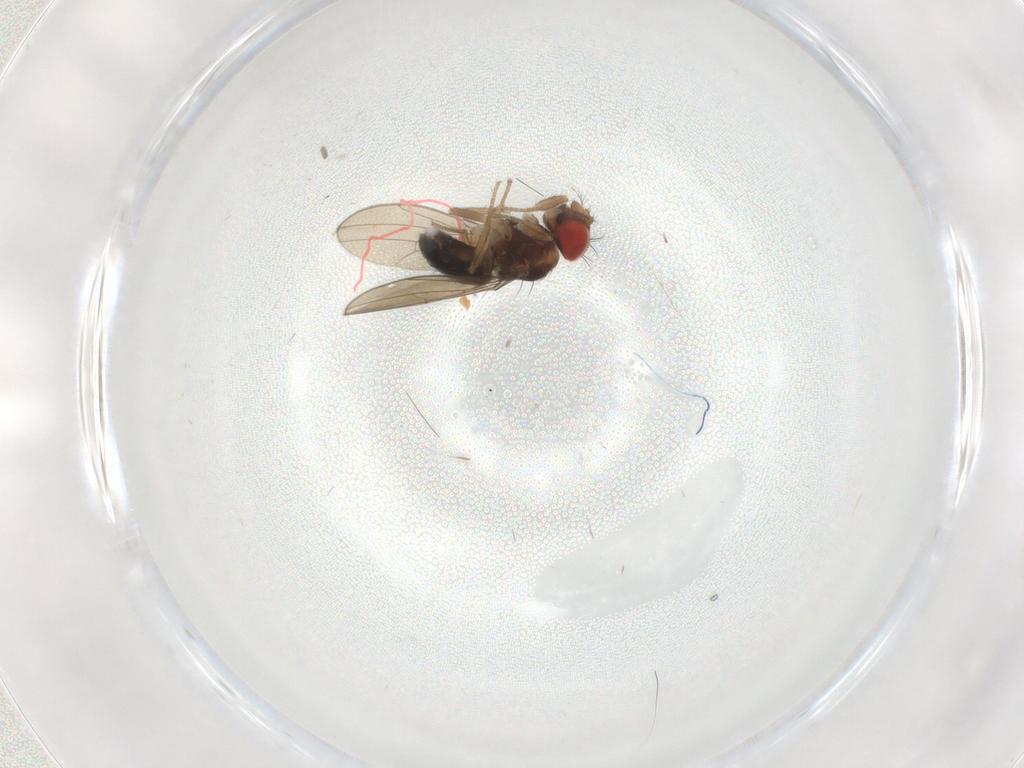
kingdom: Animalia
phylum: Arthropoda
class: Insecta
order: Diptera
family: Drosophilidae
